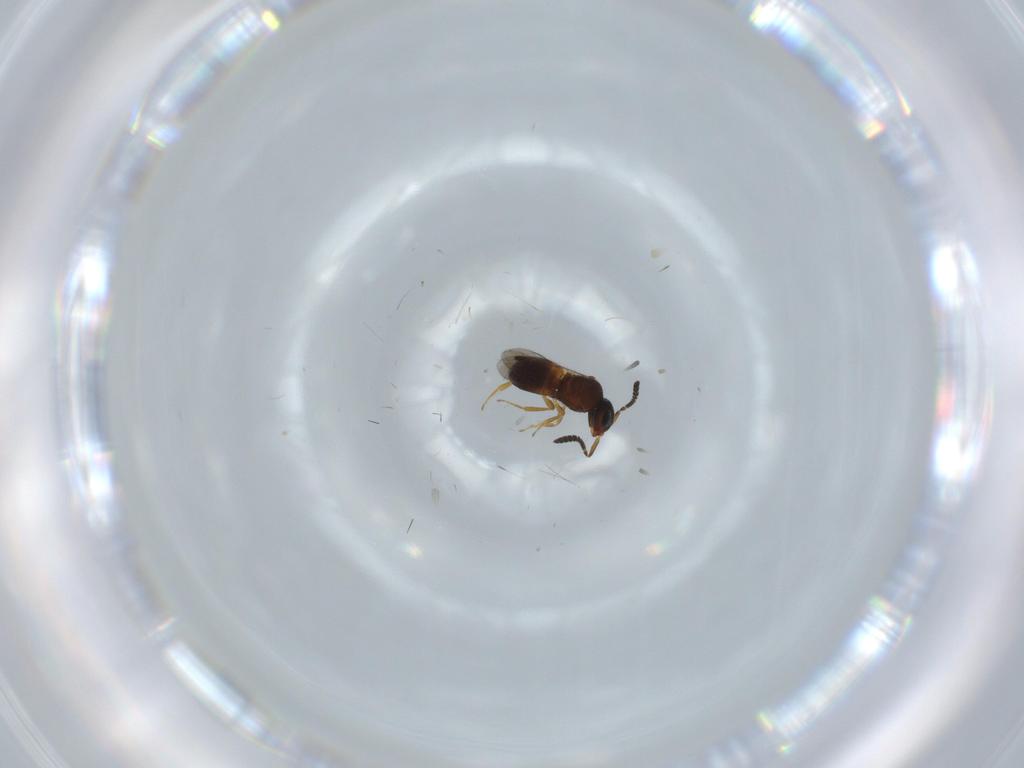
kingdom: Animalia
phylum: Arthropoda
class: Insecta
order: Hymenoptera
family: Scelionidae
